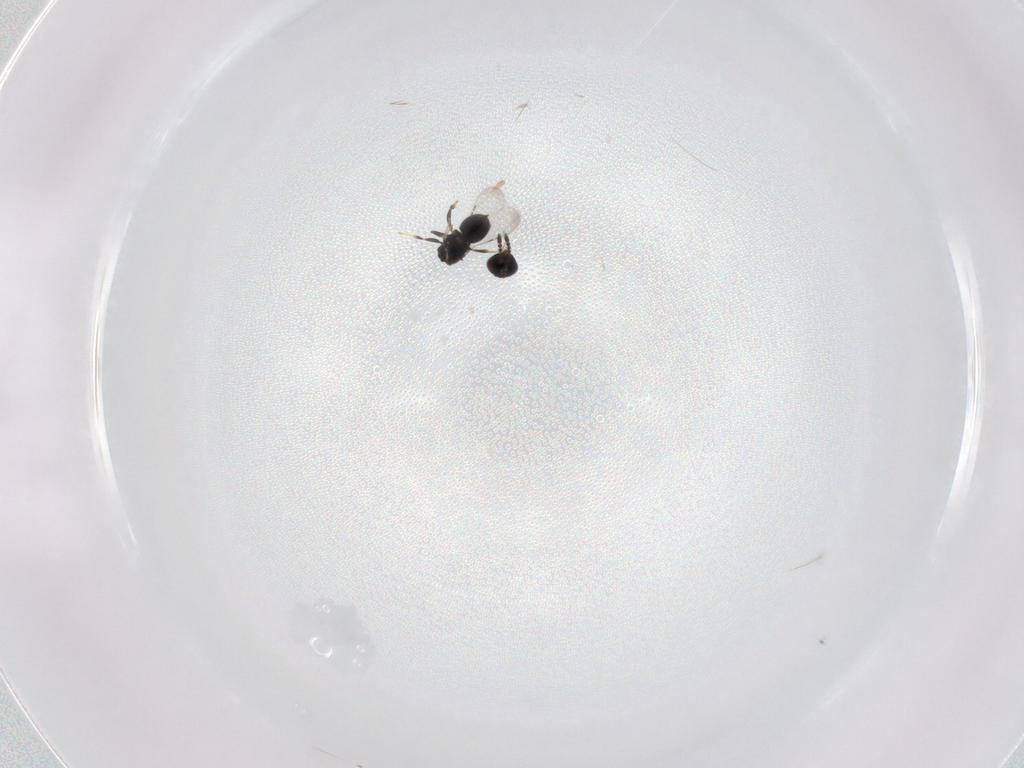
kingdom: Animalia
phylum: Arthropoda
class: Insecta
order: Hymenoptera
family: Ceraphronidae
